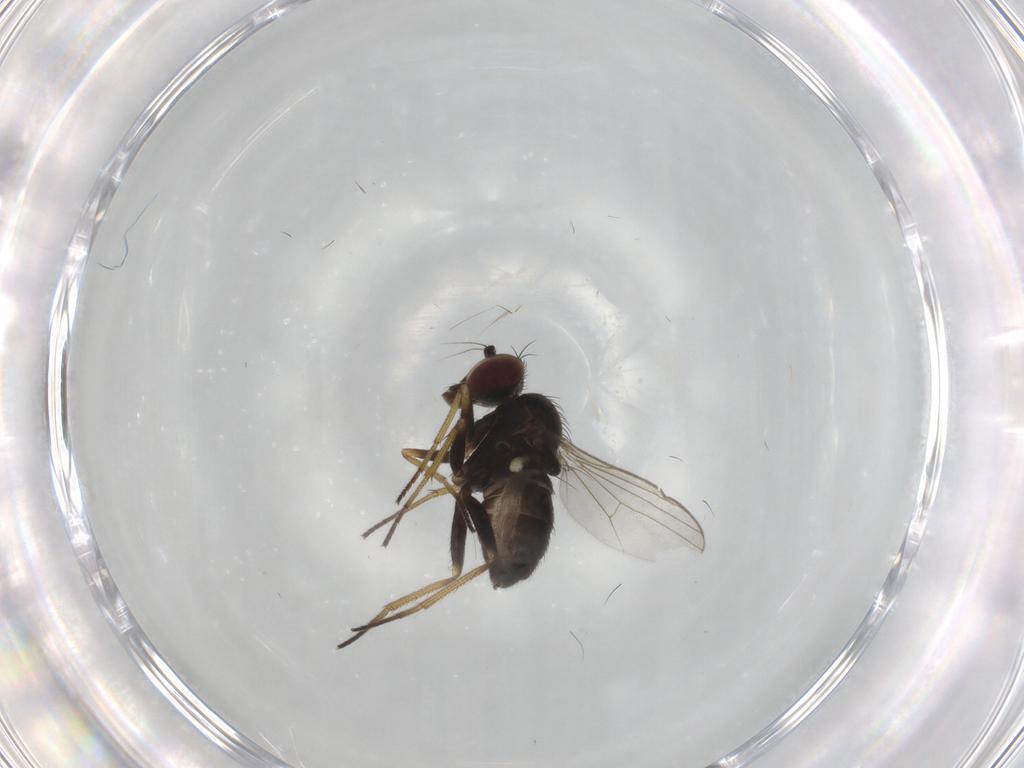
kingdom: Animalia
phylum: Arthropoda
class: Insecta
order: Diptera
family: Dolichopodidae
